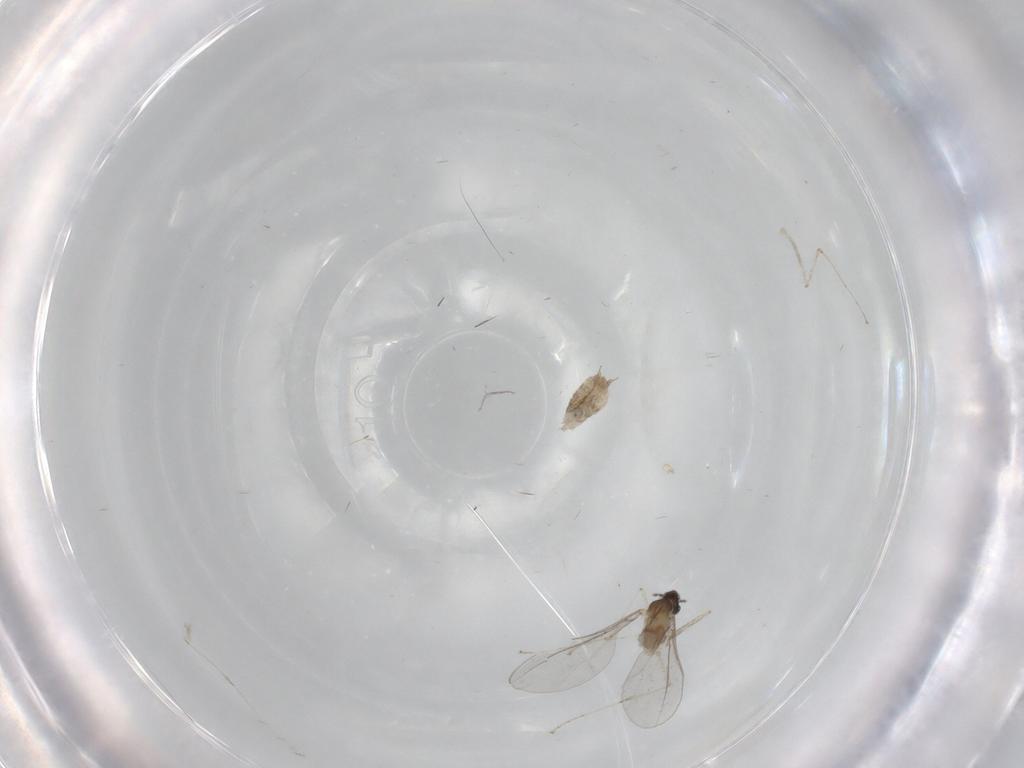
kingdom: Animalia
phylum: Arthropoda
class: Insecta
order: Diptera
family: Cecidomyiidae
